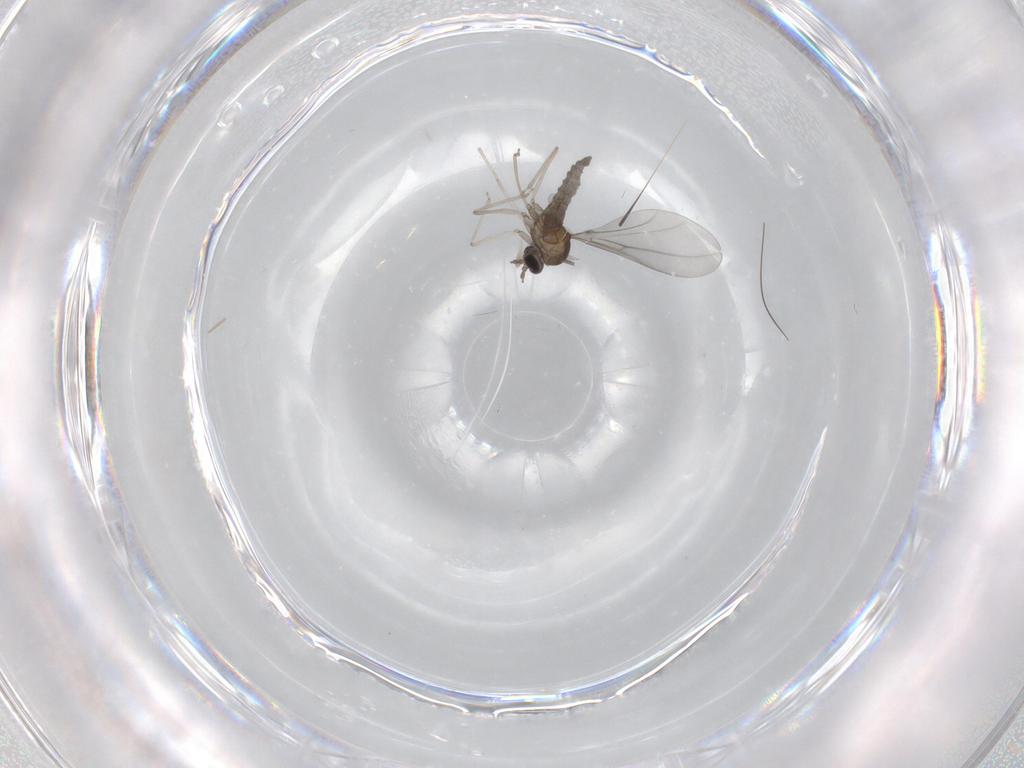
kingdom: Animalia
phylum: Arthropoda
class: Insecta
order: Diptera
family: Cecidomyiidae
